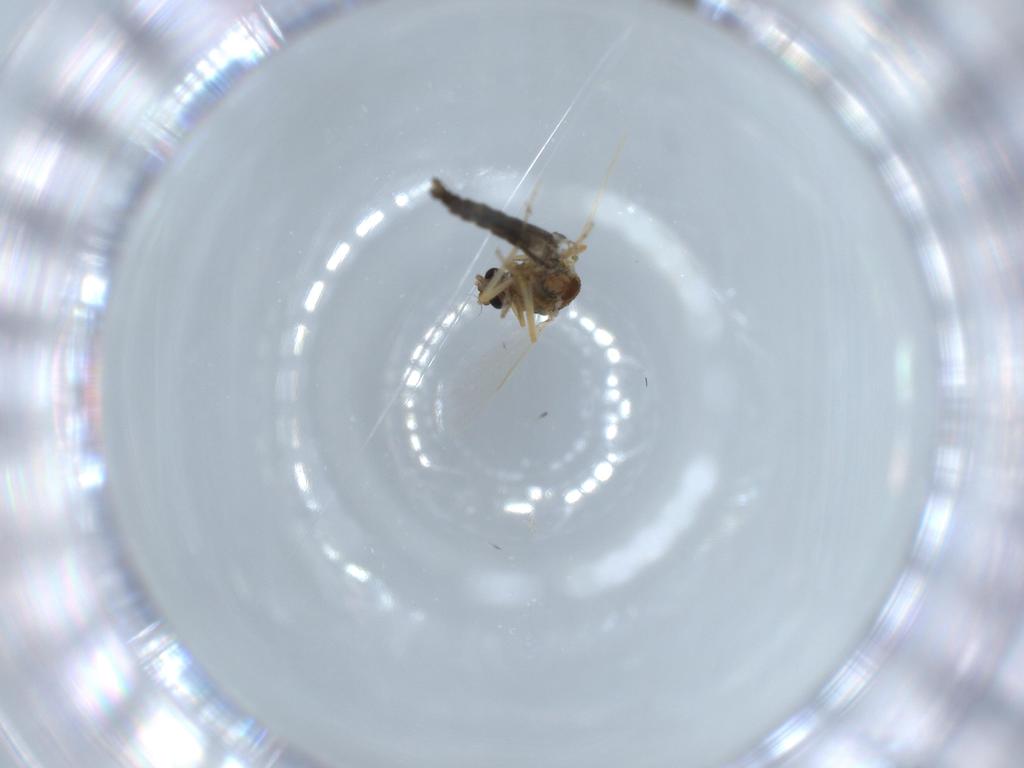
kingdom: Animalia
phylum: Arthropoda
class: Insecta
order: Diptera
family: Ceratopogonidae
